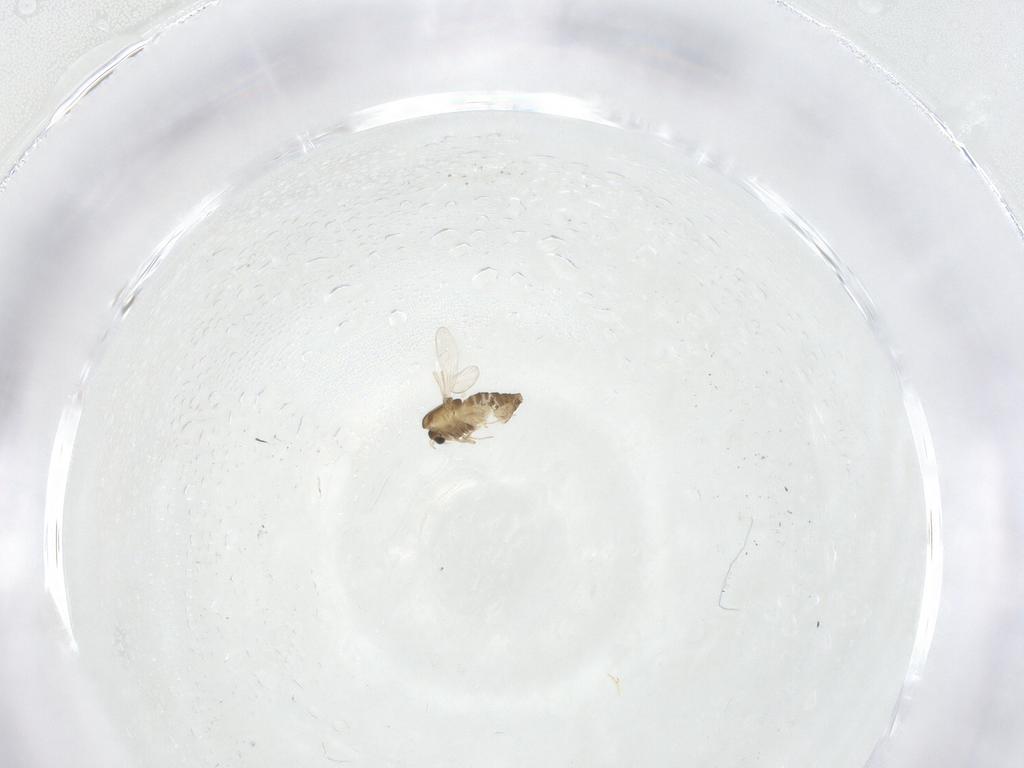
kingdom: Animalia
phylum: Arthropoda
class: Insecta
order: Diptera
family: Chironomidae
